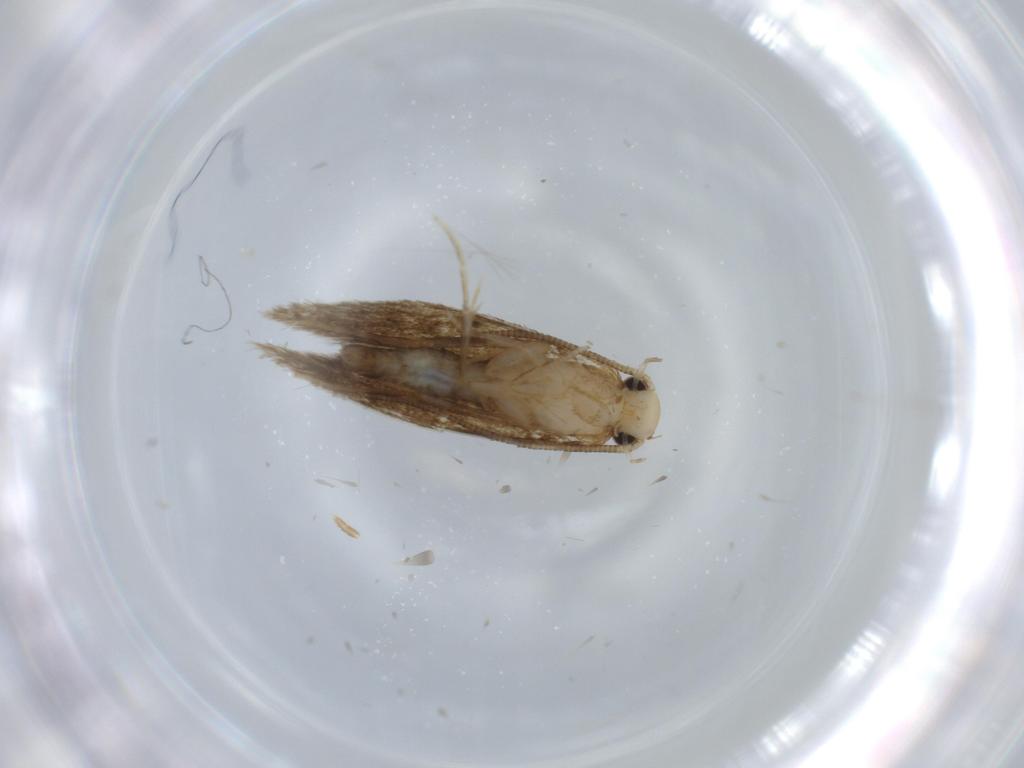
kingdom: Animalia
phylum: Arthropoda
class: Insecta
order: Lepidoptera
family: Tineidae
